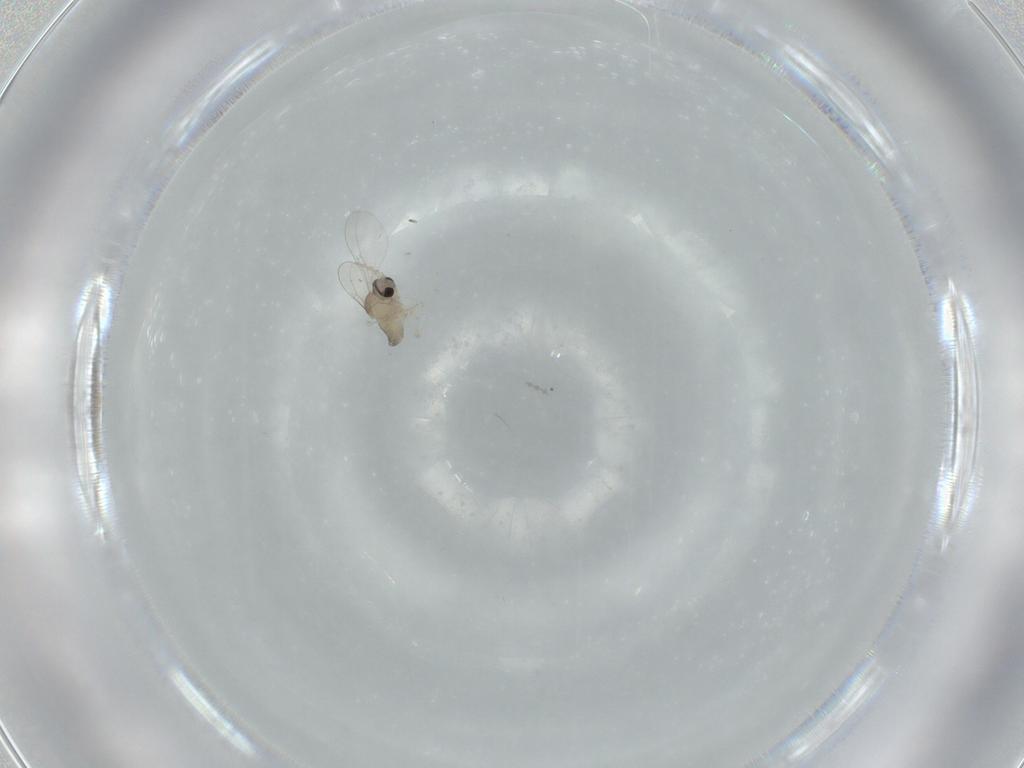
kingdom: Animalia
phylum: Arthropoda
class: Insecta
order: Diptera
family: Cecidomyiidae
